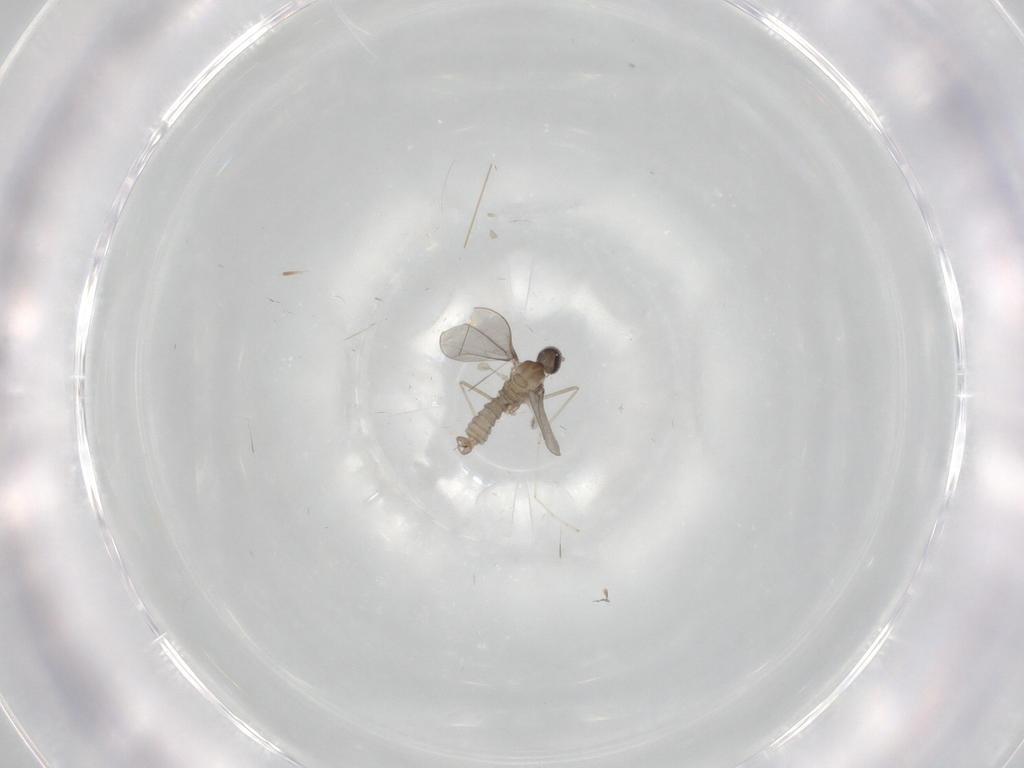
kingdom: Animalia
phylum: Arthropoda
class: Insecta
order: Diptera
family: Cecidomyiidae
